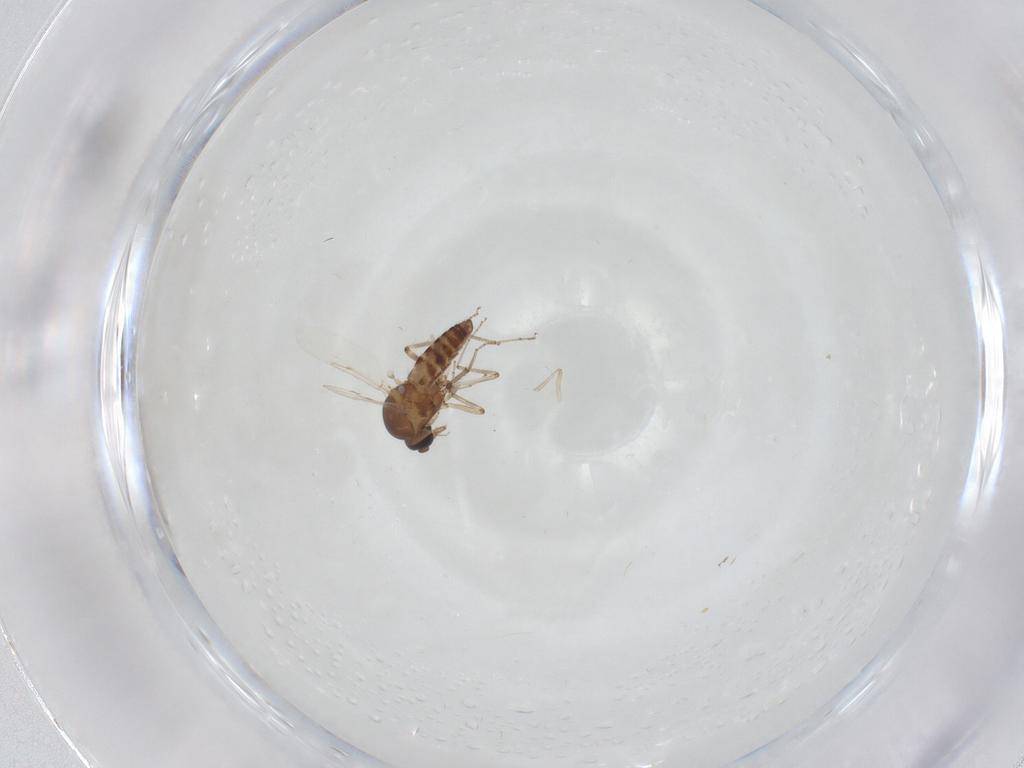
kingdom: Animalia
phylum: Arthropoda
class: Insecta
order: Diptera
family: Ceratopogonidae
